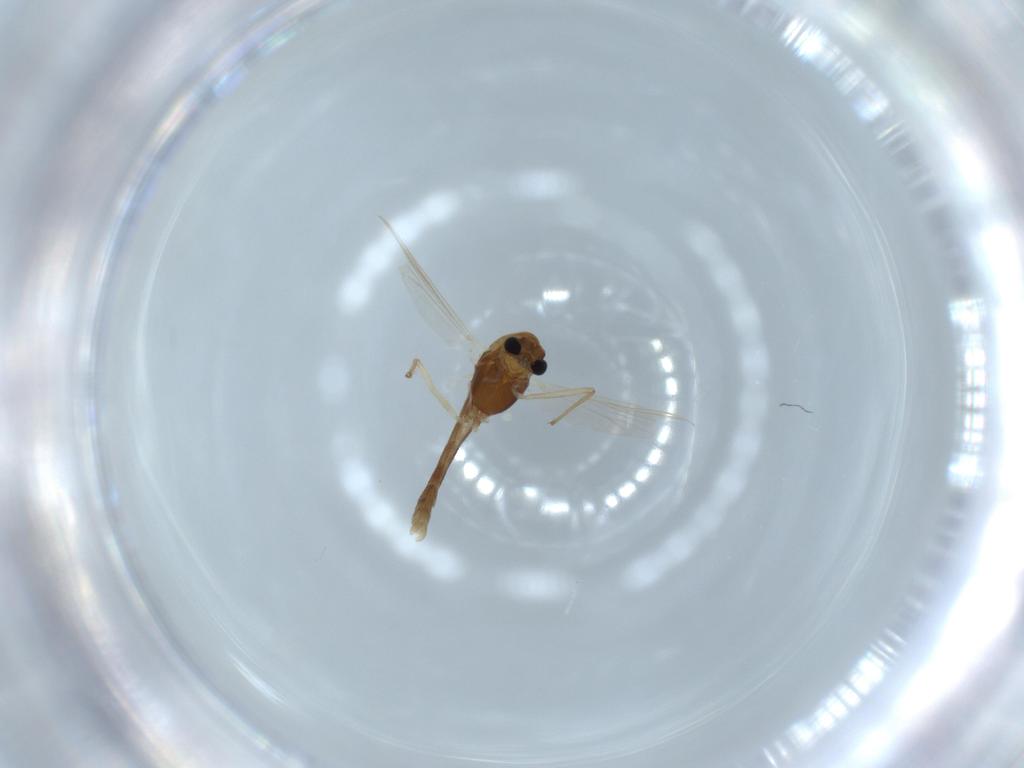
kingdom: Animalia
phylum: Arthropoda
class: Insecta
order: Diptera
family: Chironomidae
